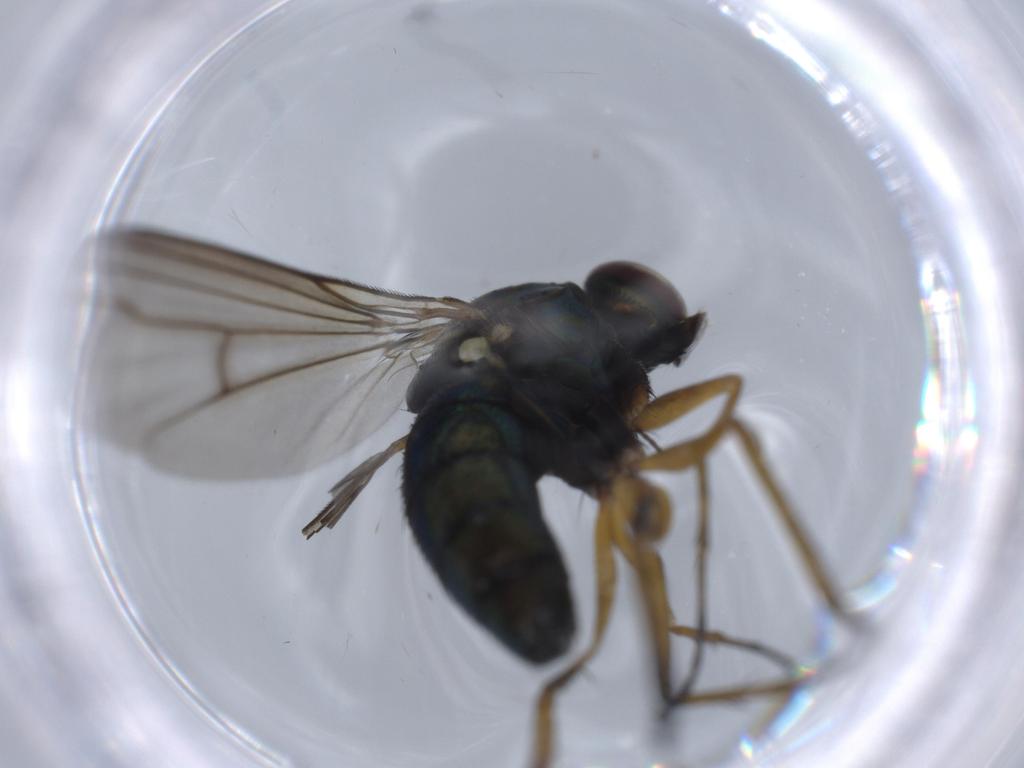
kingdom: Animalia
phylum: Arthropoda
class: Insecta
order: Diptera
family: Dolichopodidae
